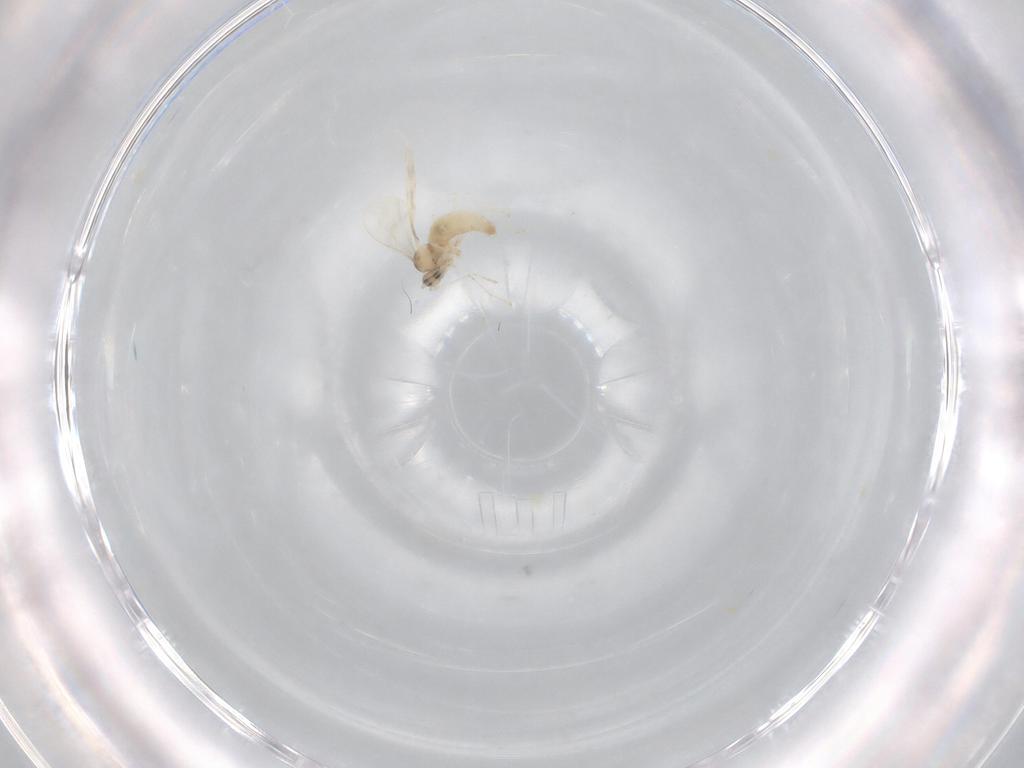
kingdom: Animalia
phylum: Arthropoda
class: Insecta
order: Diptera
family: Cecidomyiidae
